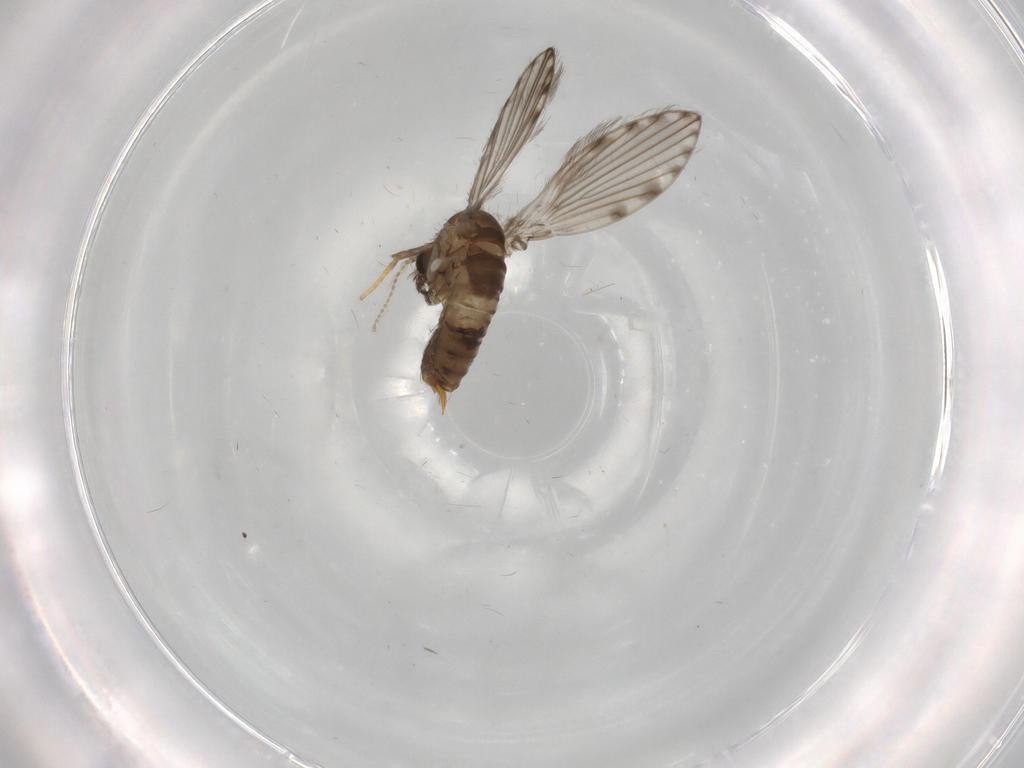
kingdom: Animalia
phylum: Arthropoda
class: Insecta
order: Diptera
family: Psychodidae
